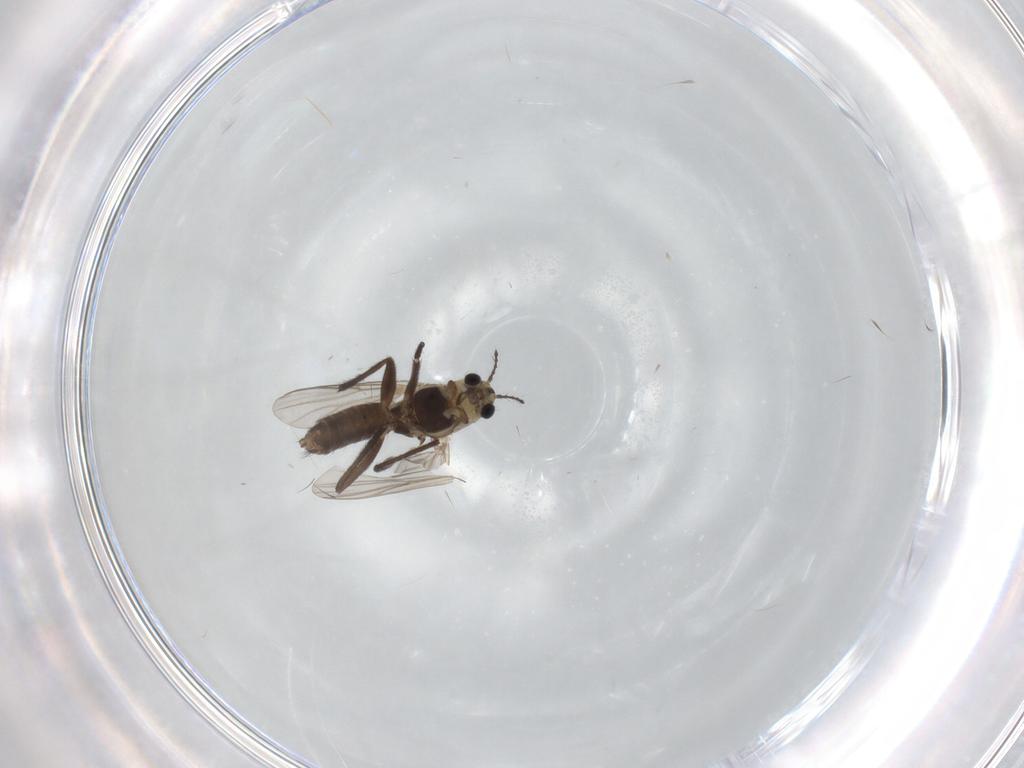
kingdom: Animalia
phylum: Arthropoda
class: Insecta
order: Diptera
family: Chironomidae
